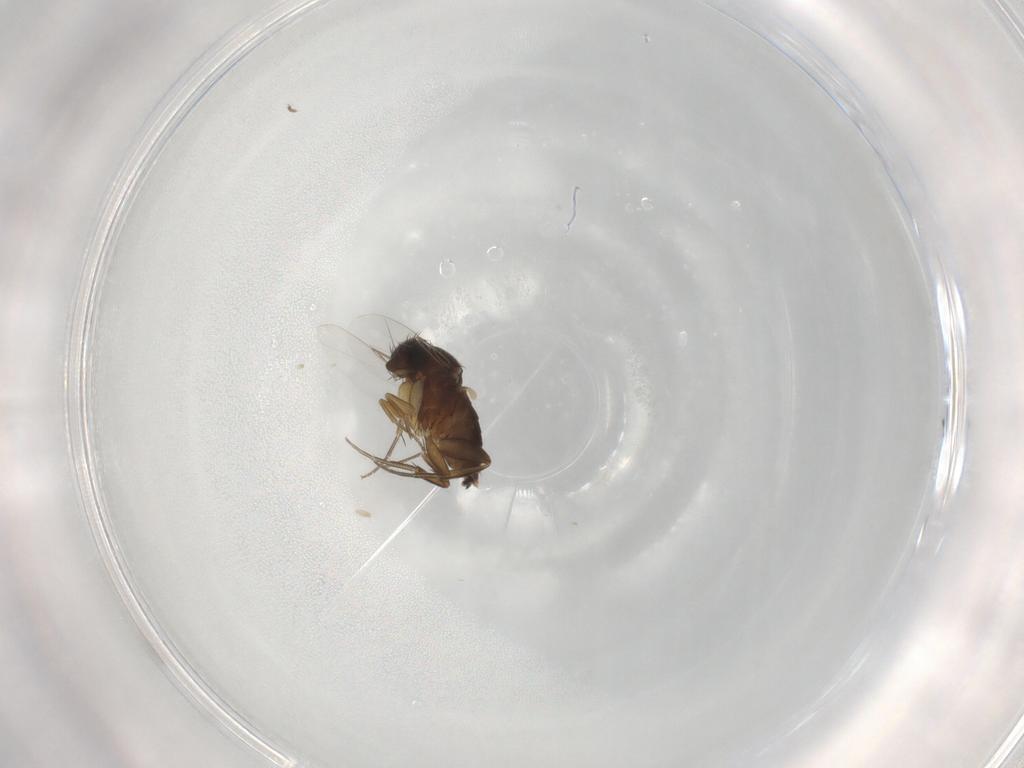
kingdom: Animalia
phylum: Arthropoda
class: Insecta
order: Diptera
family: Phoridae
